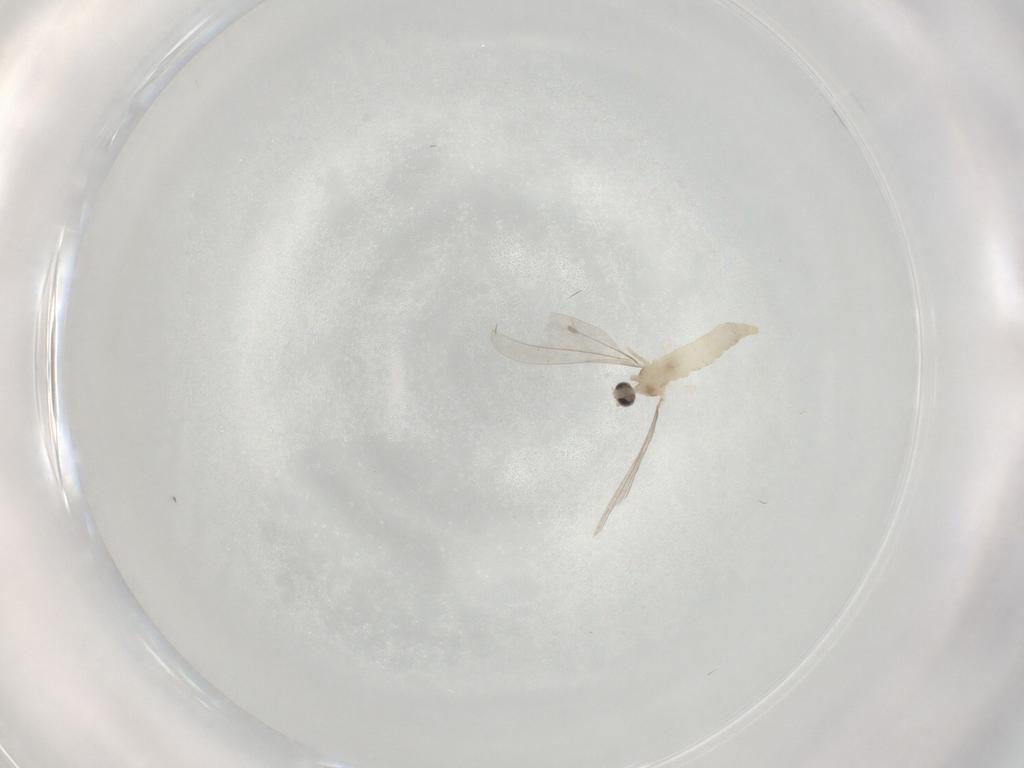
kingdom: Animalia
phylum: Arthropoda
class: Insecta
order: Diptera
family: Cecidomyiidae
